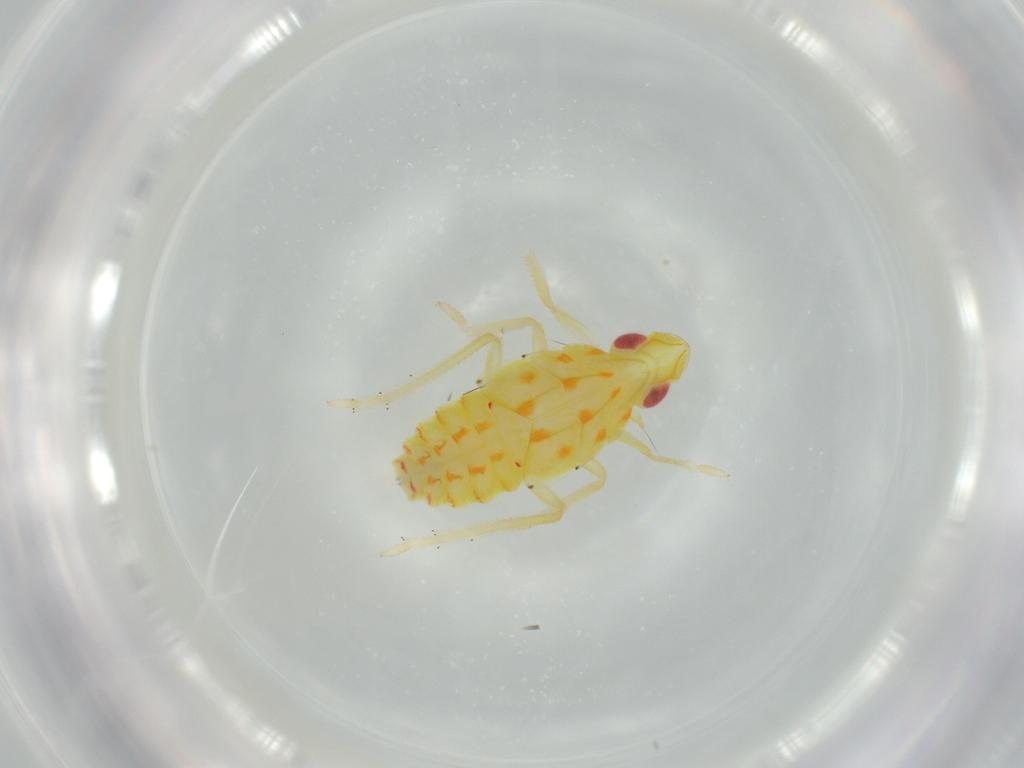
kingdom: Animalia
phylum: Arthropoda
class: Insecta
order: Hemiptera
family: Tropiduchidae
